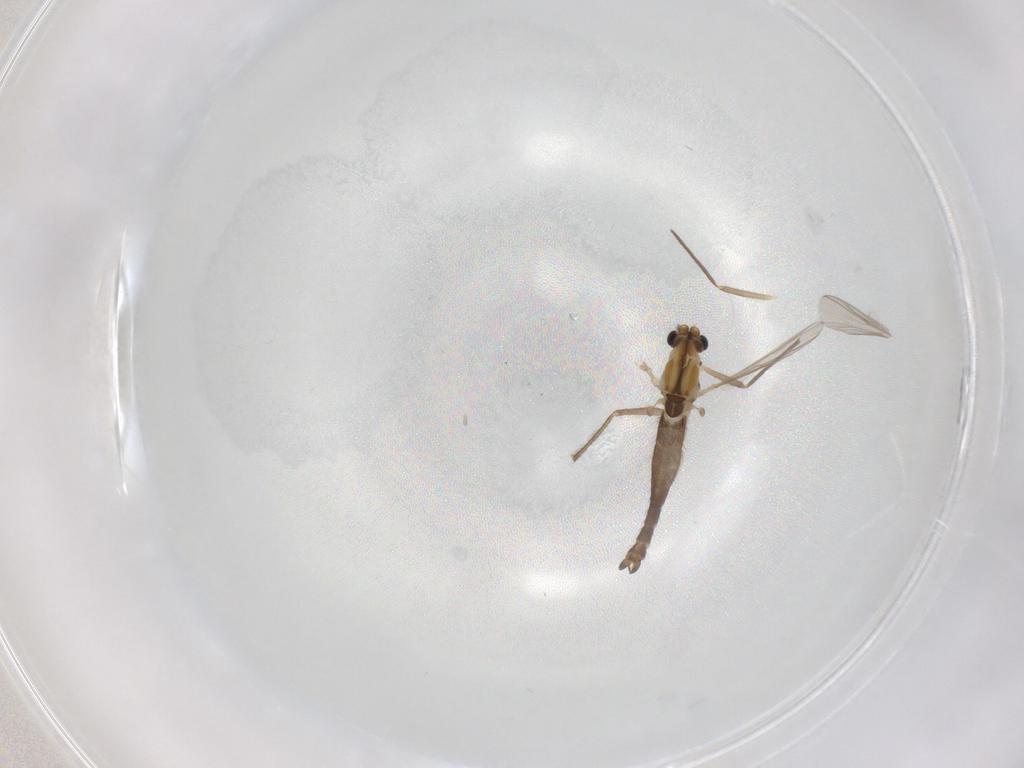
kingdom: Animalia
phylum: Arthropoda
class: Insecta
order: Diptera
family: Chironomidae
